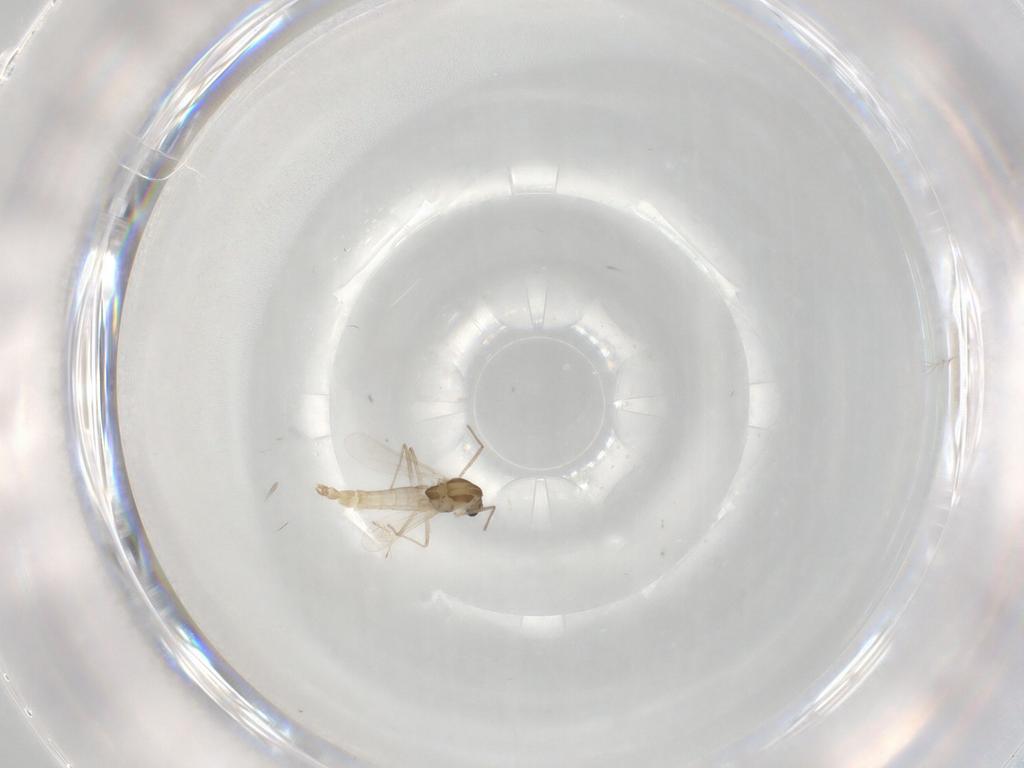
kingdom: Animalia
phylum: Arthropoda
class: Insecta
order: Diptera
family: Chironomidae
